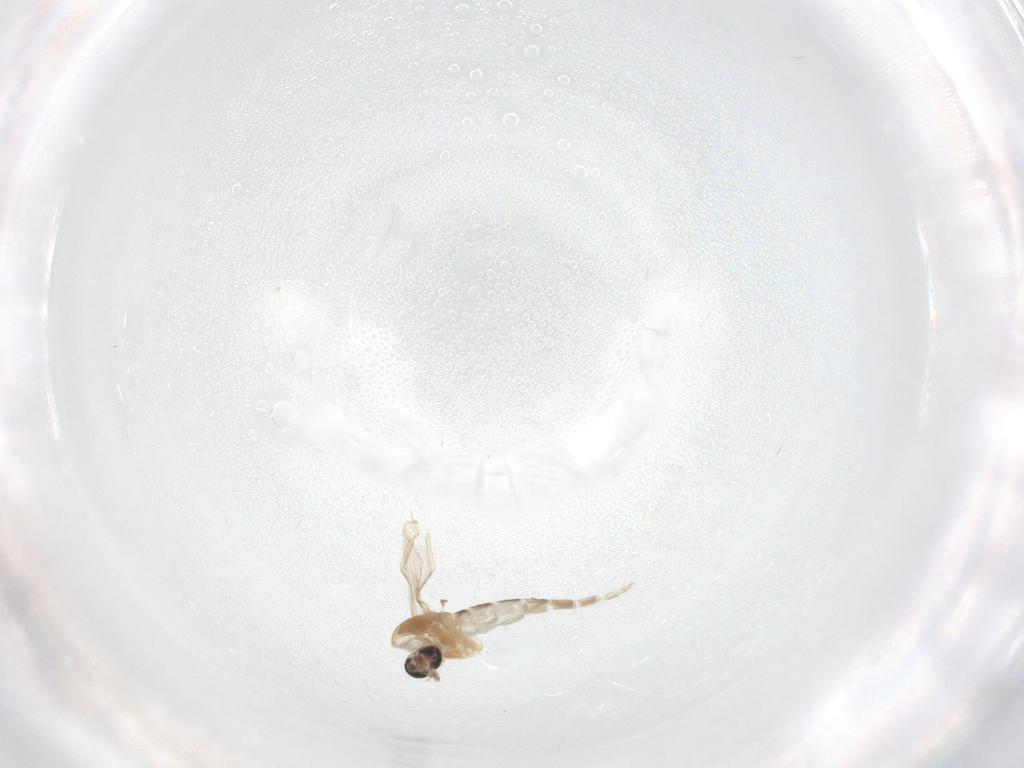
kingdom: Animalia
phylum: Arthropoda
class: Insecta
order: Diptera
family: Chironomidae
